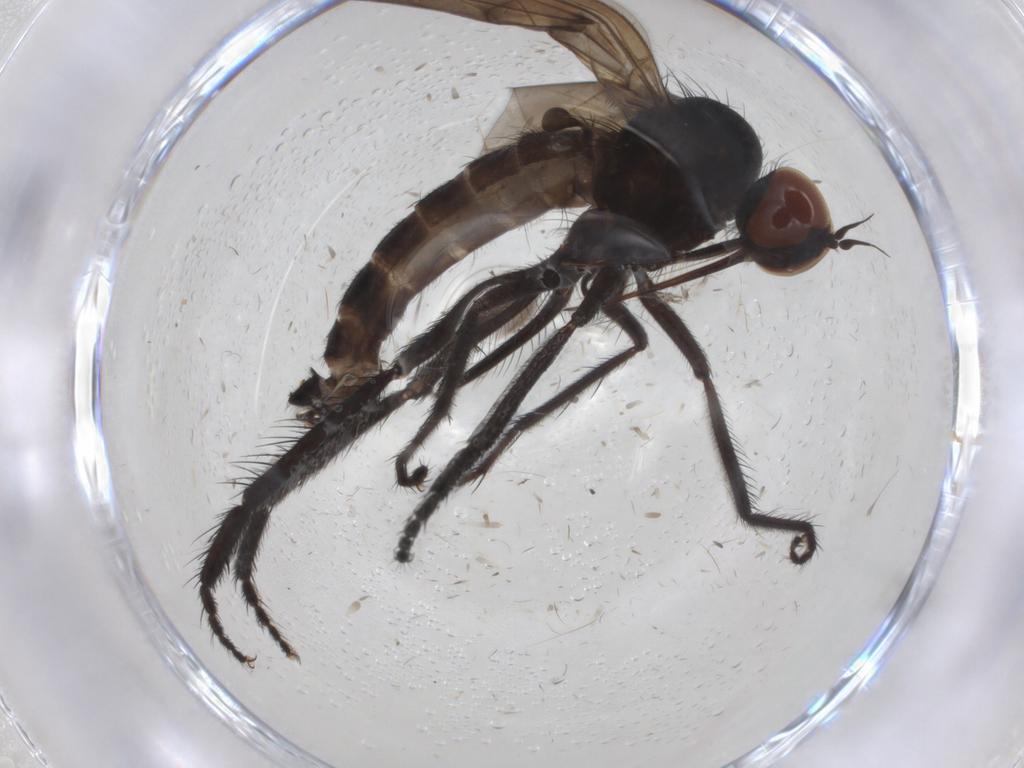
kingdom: Animalia
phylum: Arthropoda
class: Insecta
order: Diptera
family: Empididae
